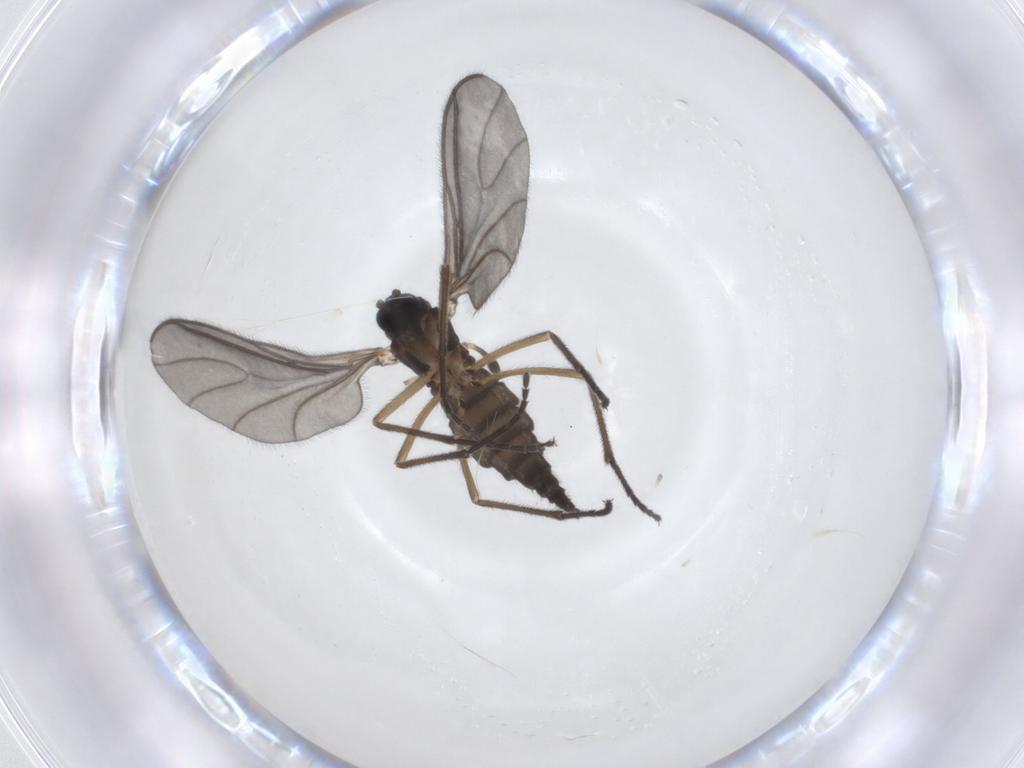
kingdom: Animalia
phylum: Arthropoda
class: Insecta
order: Diptera
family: Sciaridae
